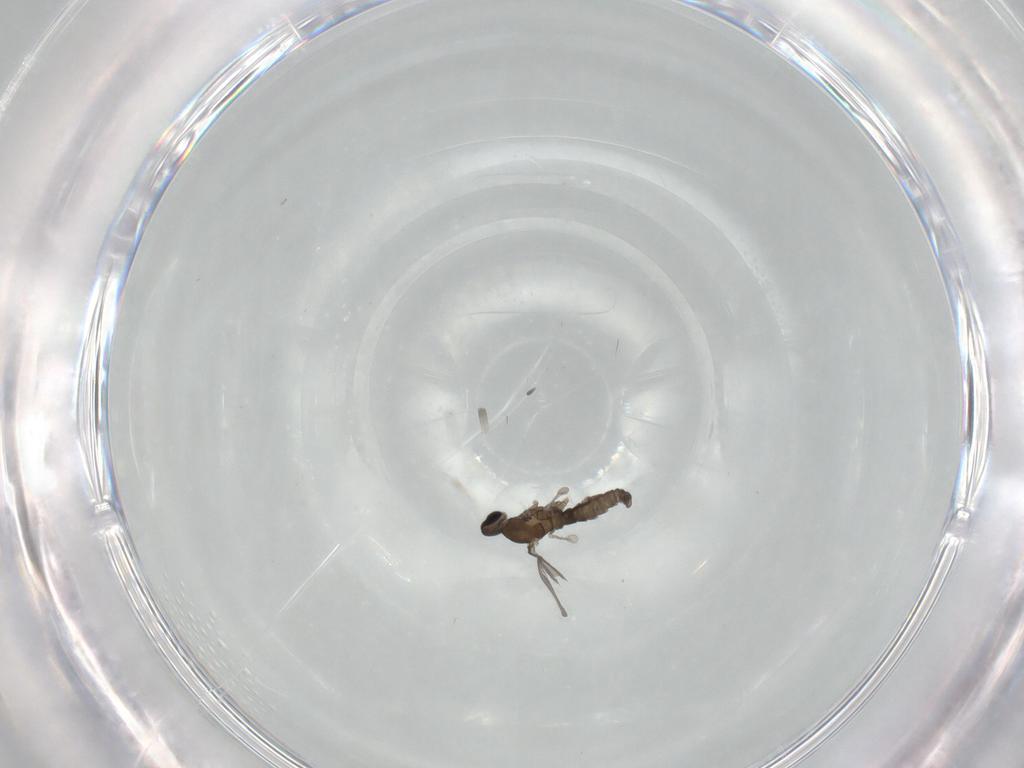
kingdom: Animalia
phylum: Arthropoda
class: Insecta
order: Diptera
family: Cecidomyiidae
